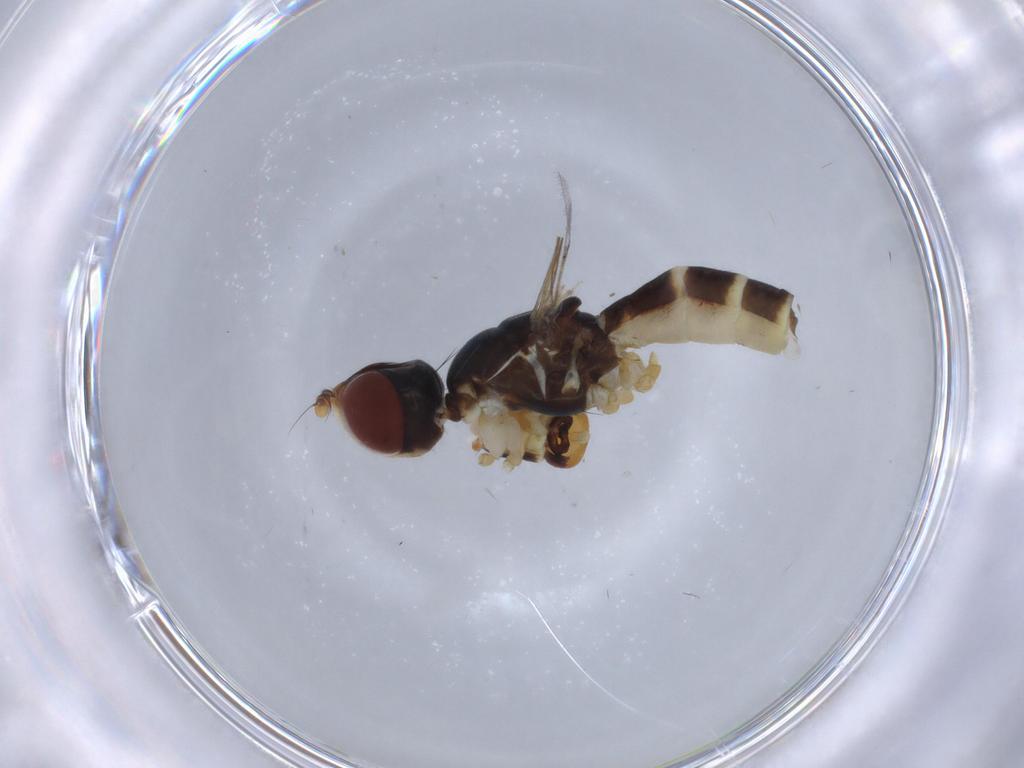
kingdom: Animalia
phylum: Arthropoda
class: Insecta
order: Diptera
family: Micropezidae
